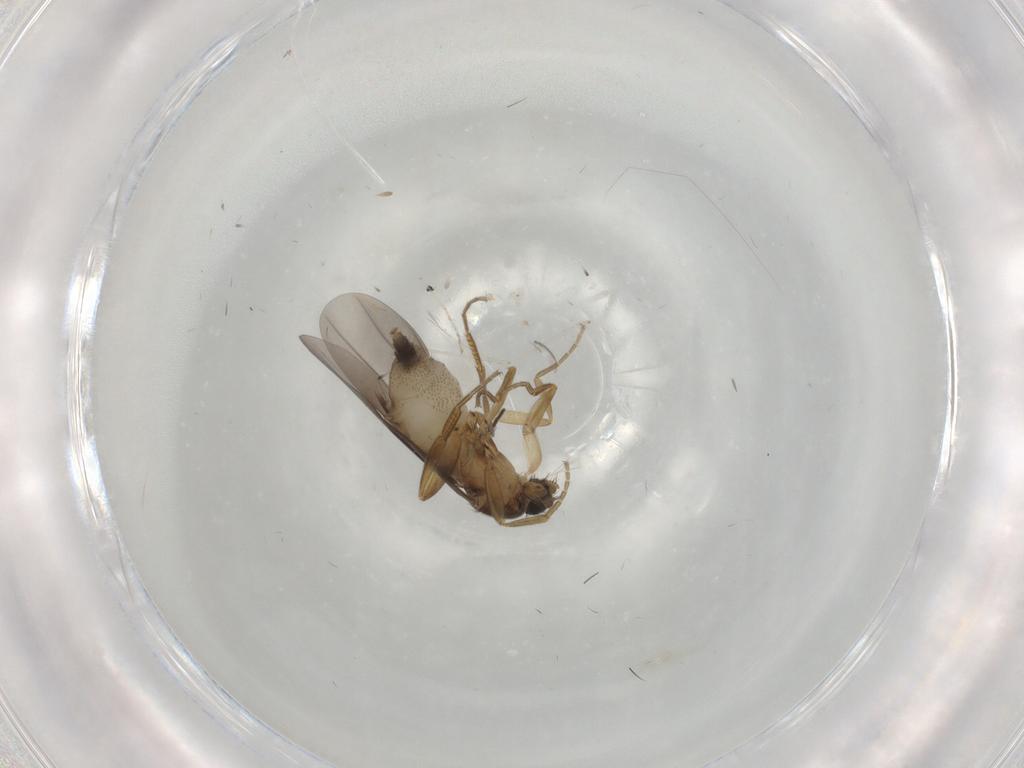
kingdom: Animalia
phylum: Arthropoda
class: Insecta
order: Diptera
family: Phoridae
